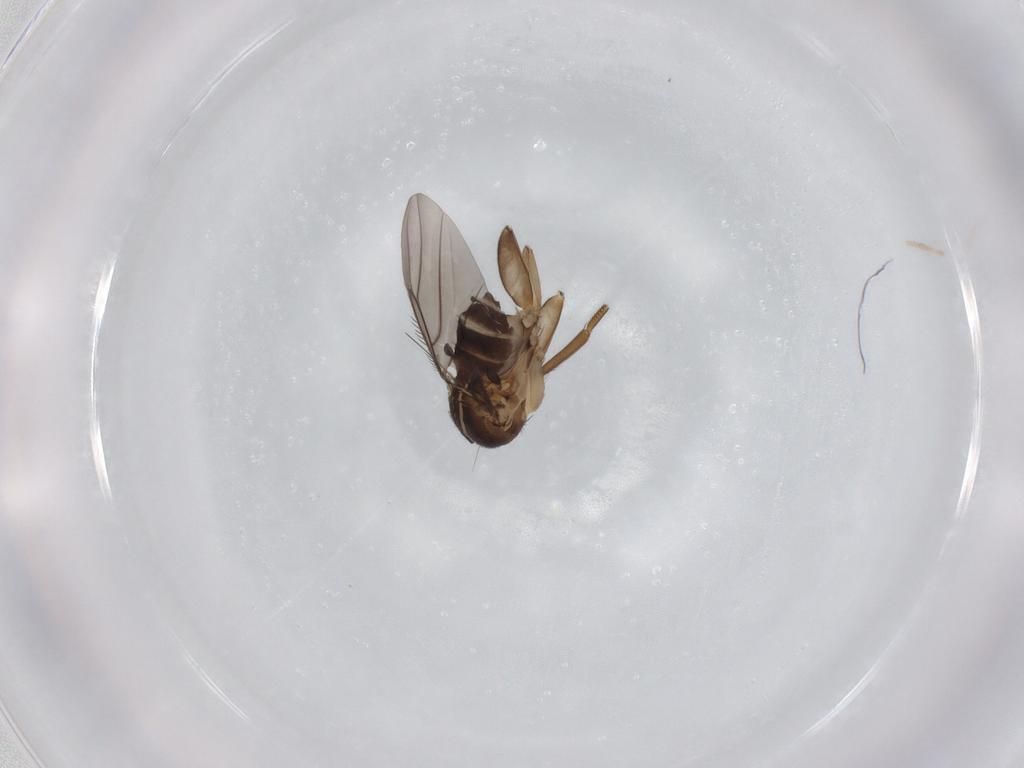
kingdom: Animalia
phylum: Arthropoda
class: Insecta
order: Diptera
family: Phoridae
